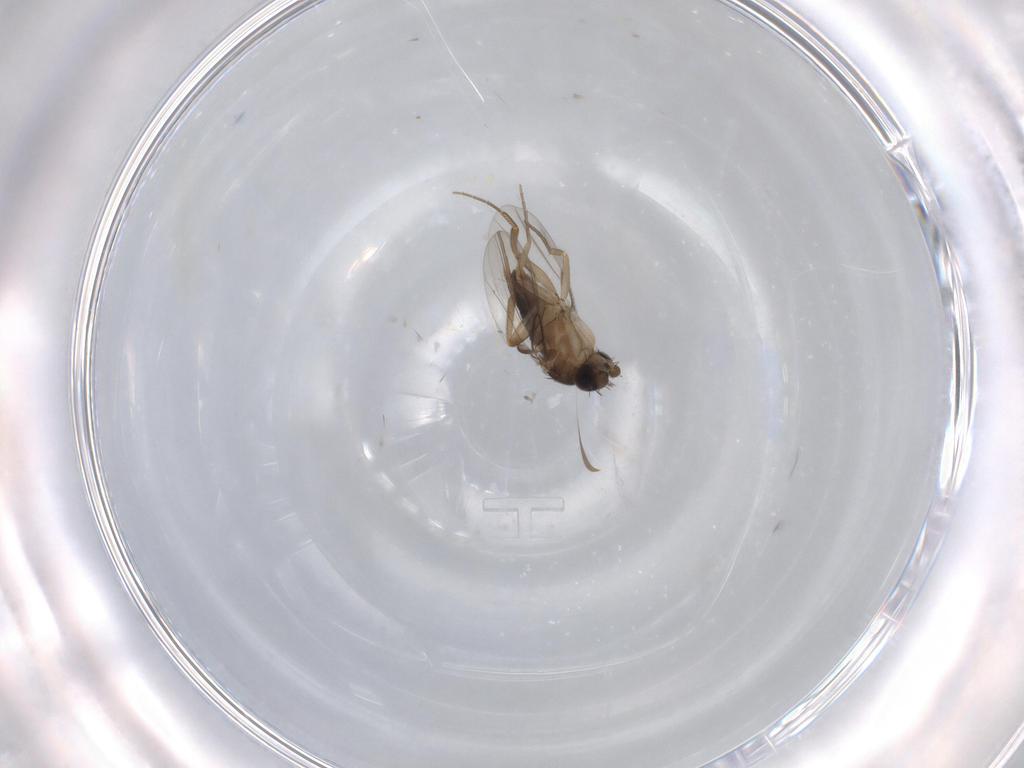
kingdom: Animalia
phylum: Arthropoda
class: Insecta
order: Diptera
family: Phoridae
